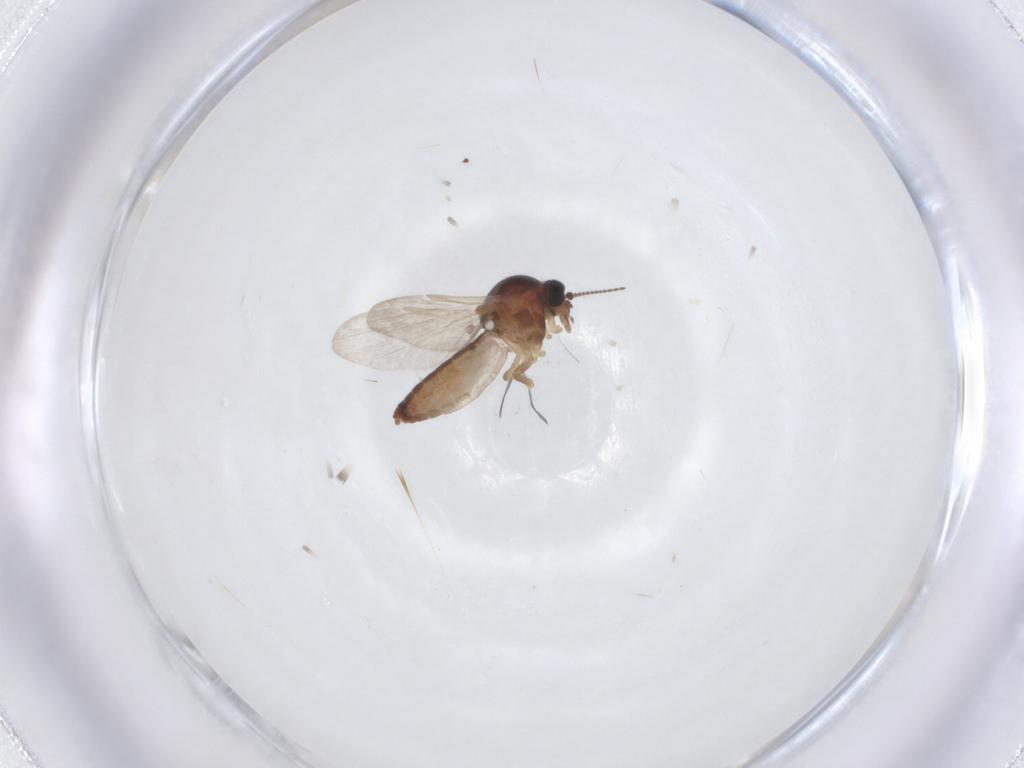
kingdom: Animalia
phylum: Arthropoda
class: Insecta
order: Diptera
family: Ceratopogonidae
